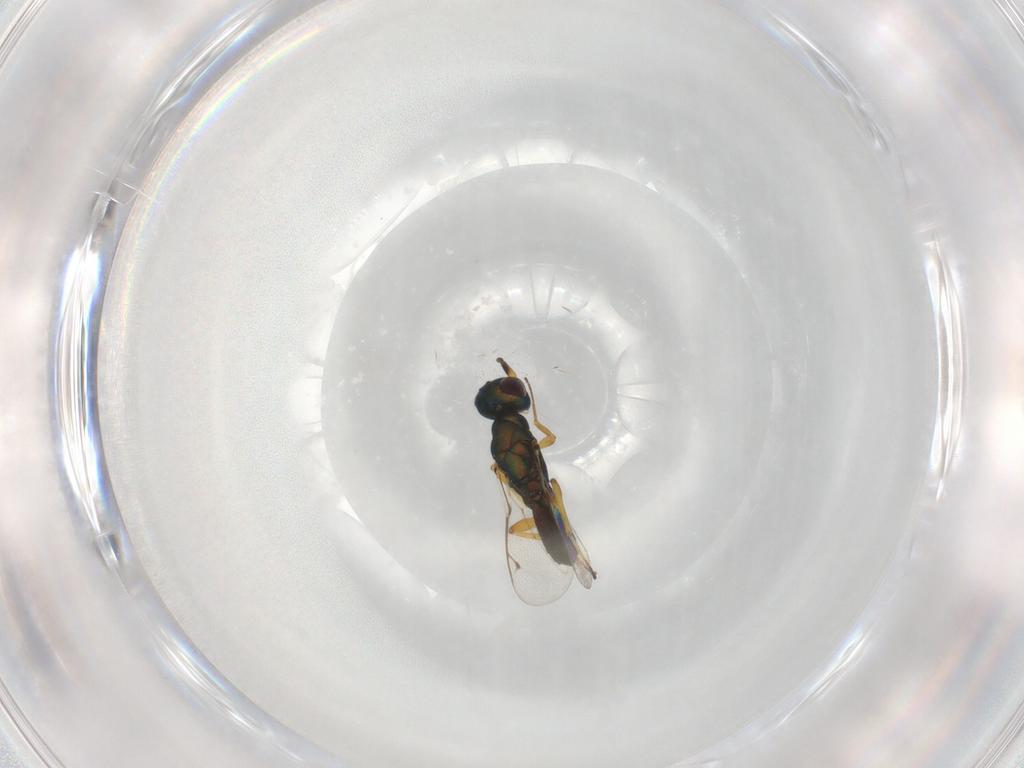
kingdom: Animalia
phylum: Arthropoda
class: Insecta
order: Hymenoptera
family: Eupelmidae
